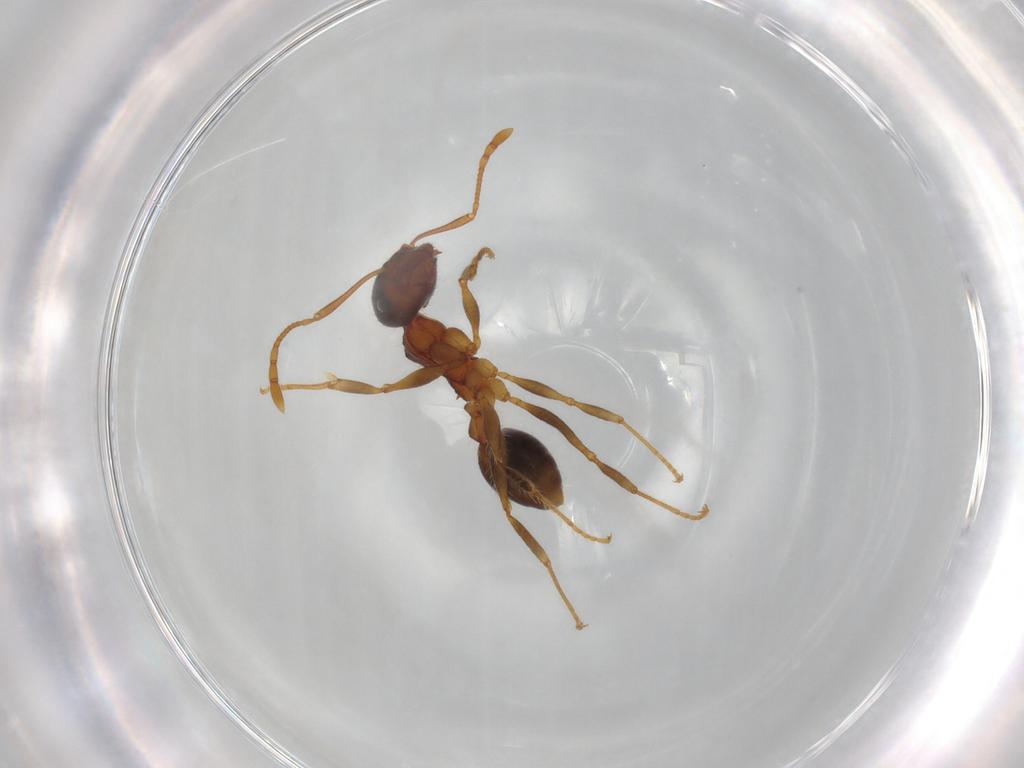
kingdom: Animalia
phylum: Arthropoda
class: Insecta
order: Hymenoptera
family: Formicidae
